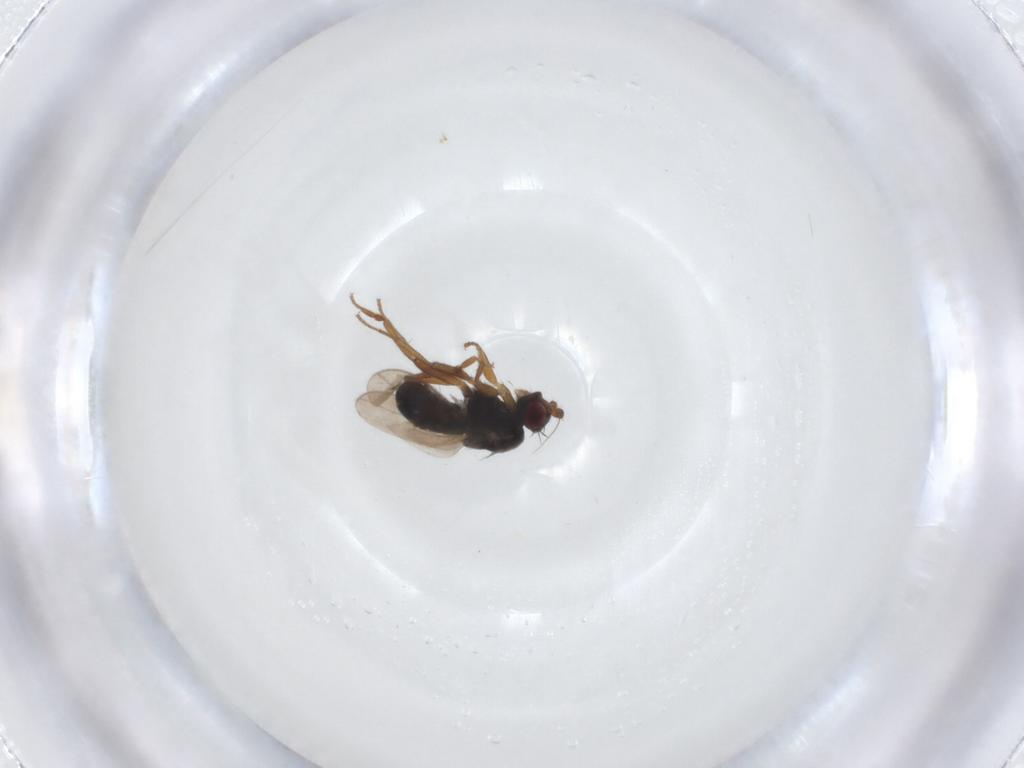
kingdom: Animalia
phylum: Arthropoda
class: Insecta
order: Diptera
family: Sphaeroceridae
